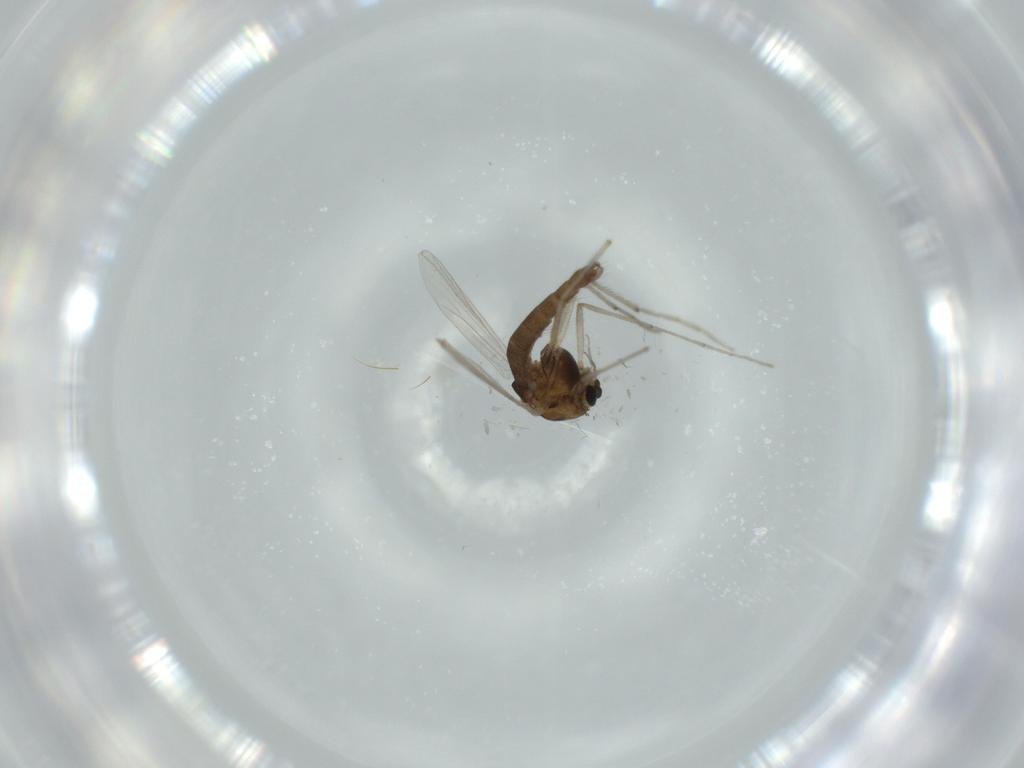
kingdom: Animalia
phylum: Arthropoda
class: Insecta
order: Diptera
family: Chironomidae
